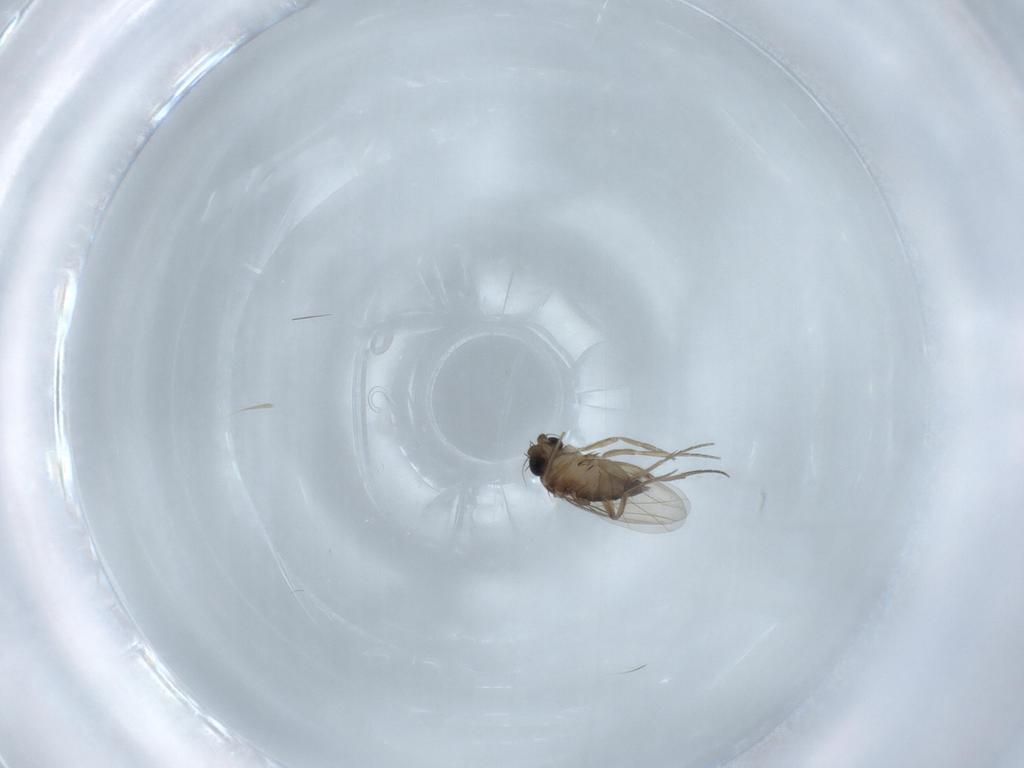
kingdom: Animalia
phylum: Arthropoda
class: Insecta
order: Diptera
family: Phoridae
